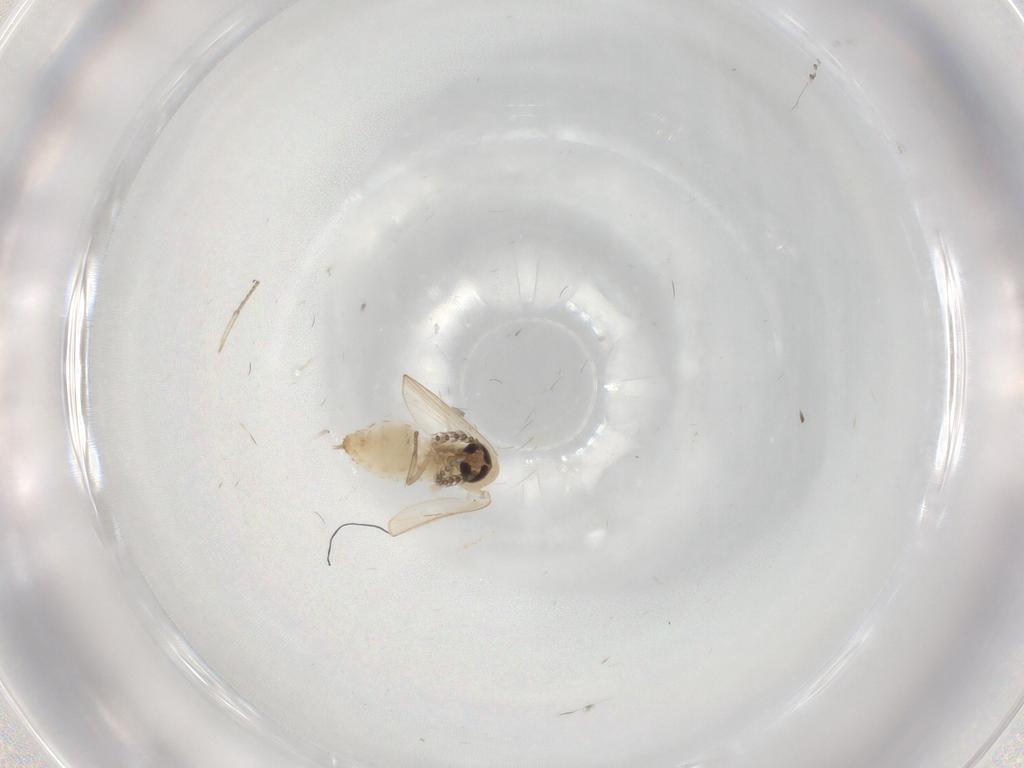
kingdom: Animalia
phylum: Arthropoda
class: Insecta
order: Diptera
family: Psychodidae
